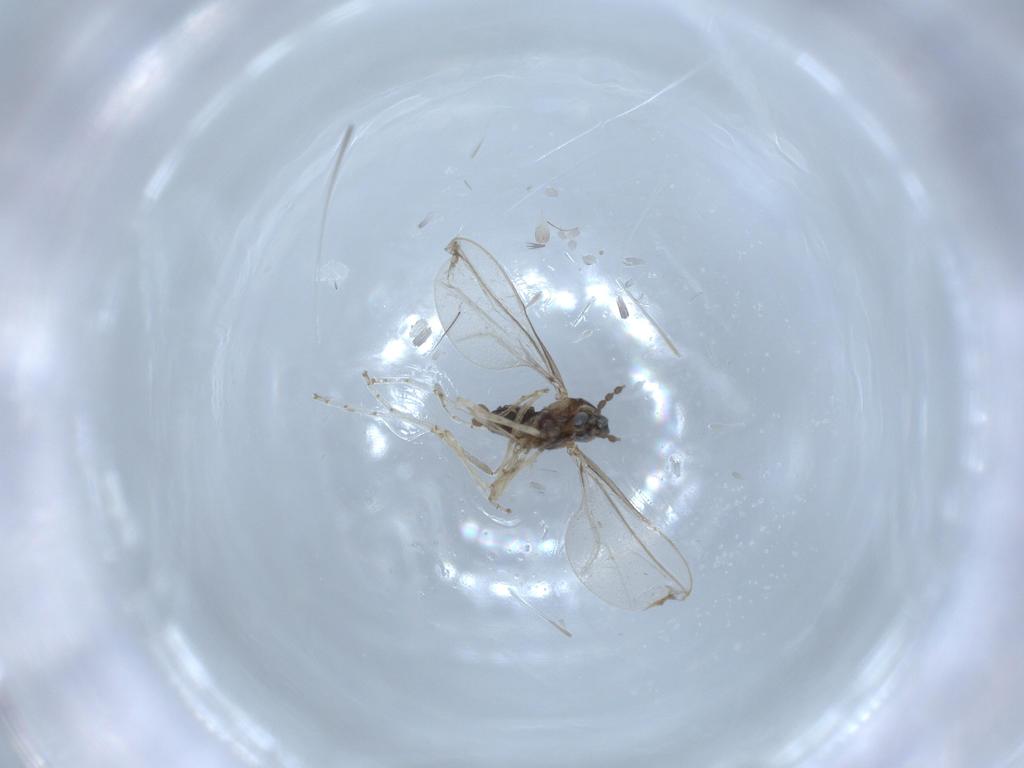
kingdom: Animalia
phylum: Arthropoda
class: Insecta
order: Diptera
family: Cecidomyiidae
